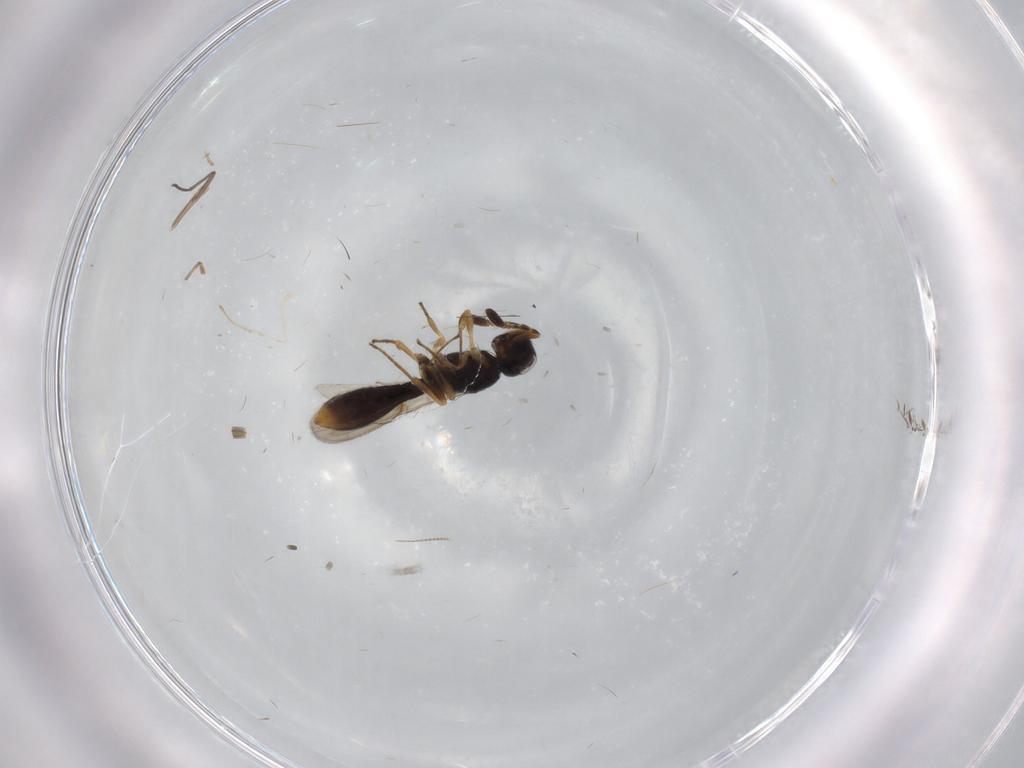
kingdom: Animalia
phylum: Arthropoda
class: Insecta
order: Hymenoptera
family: Scelionidae
